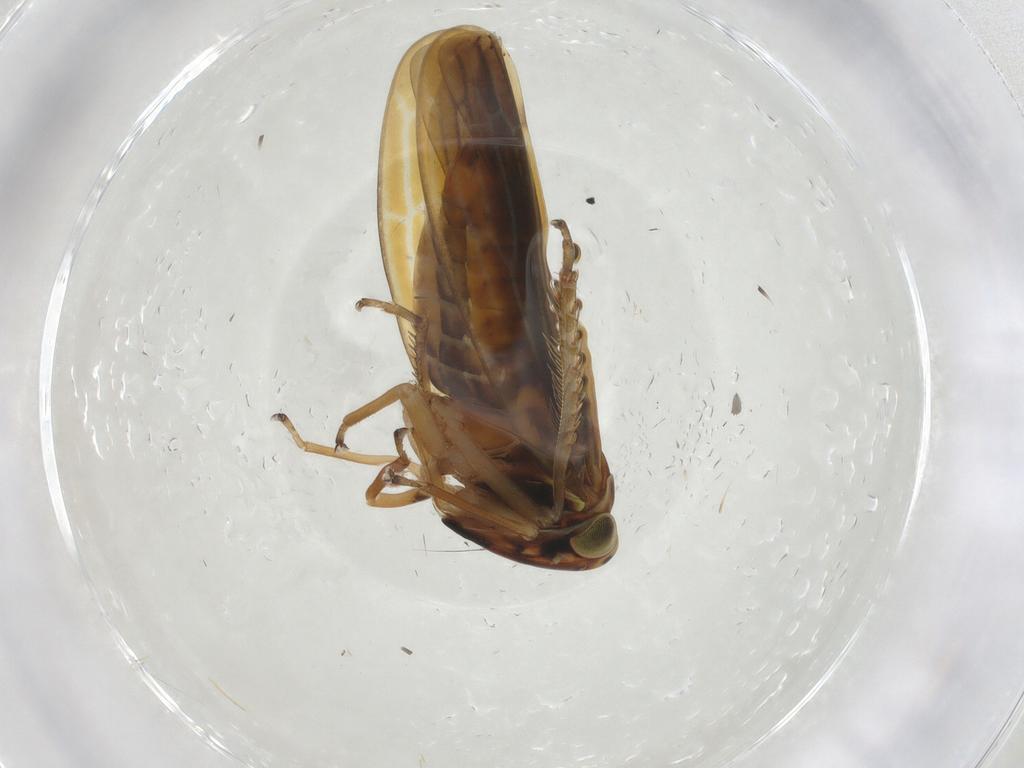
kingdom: Animalia
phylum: Arthropoda
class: Insecta
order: Hemiptera
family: Cicadellidae
